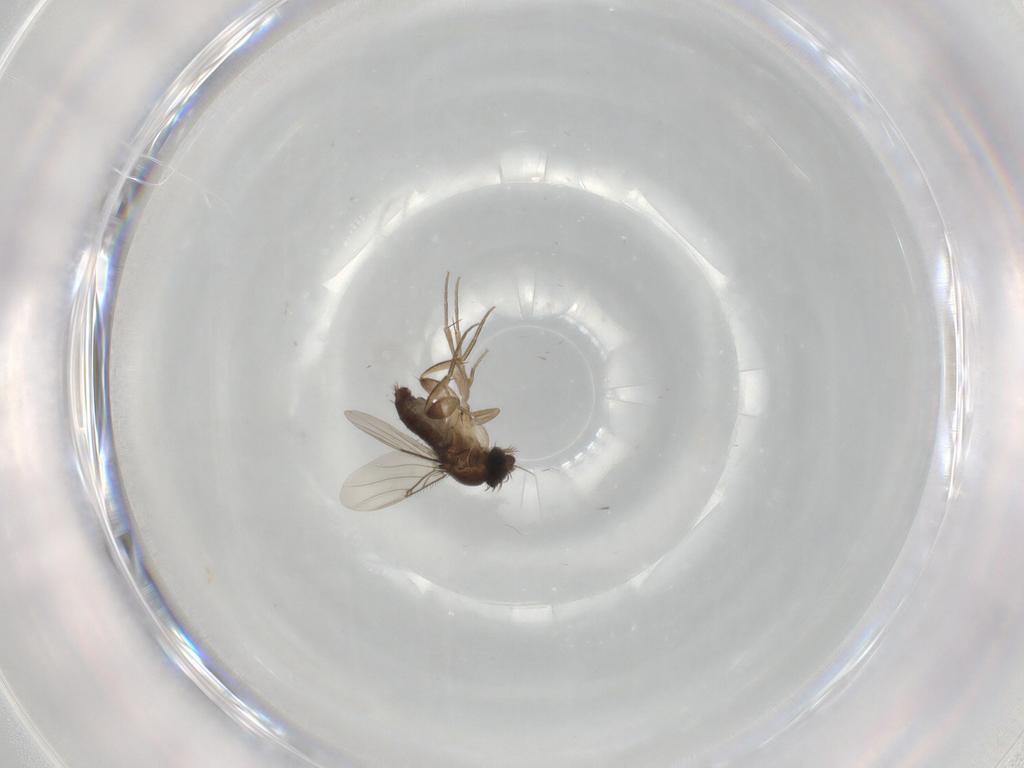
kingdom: Animalia
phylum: Arthropoda
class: Insecta
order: Diptera
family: Phoridae
